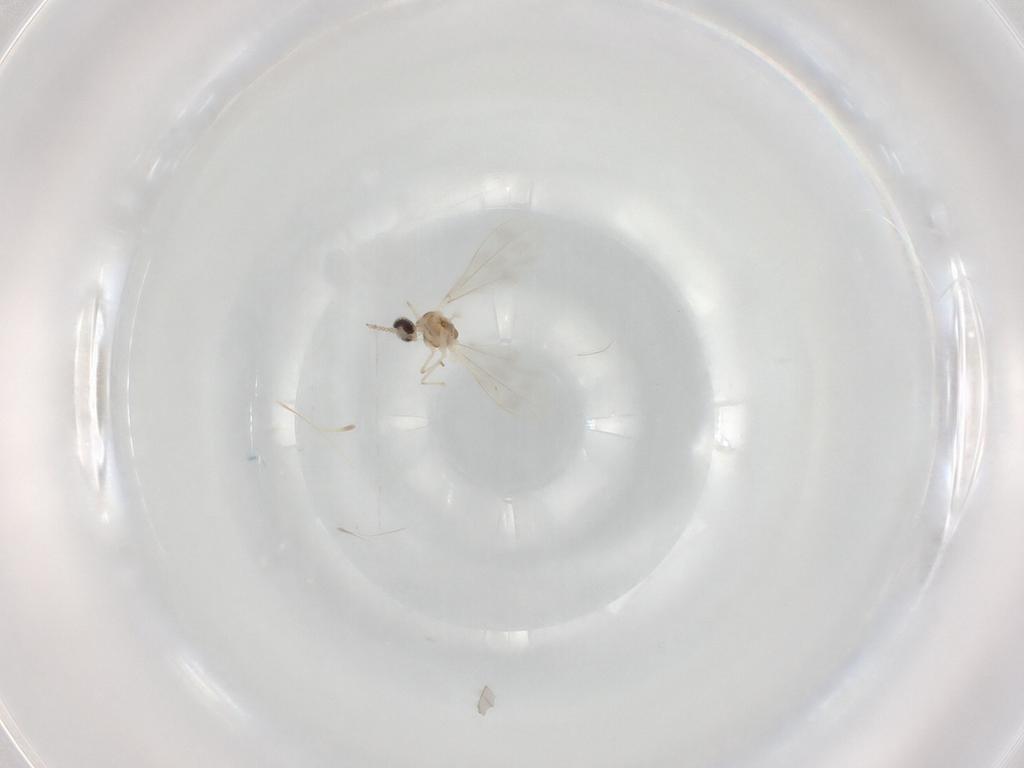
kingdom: Animalia
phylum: Arthropoda
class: Insecta
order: Diptera
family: Cecidomyiidae
